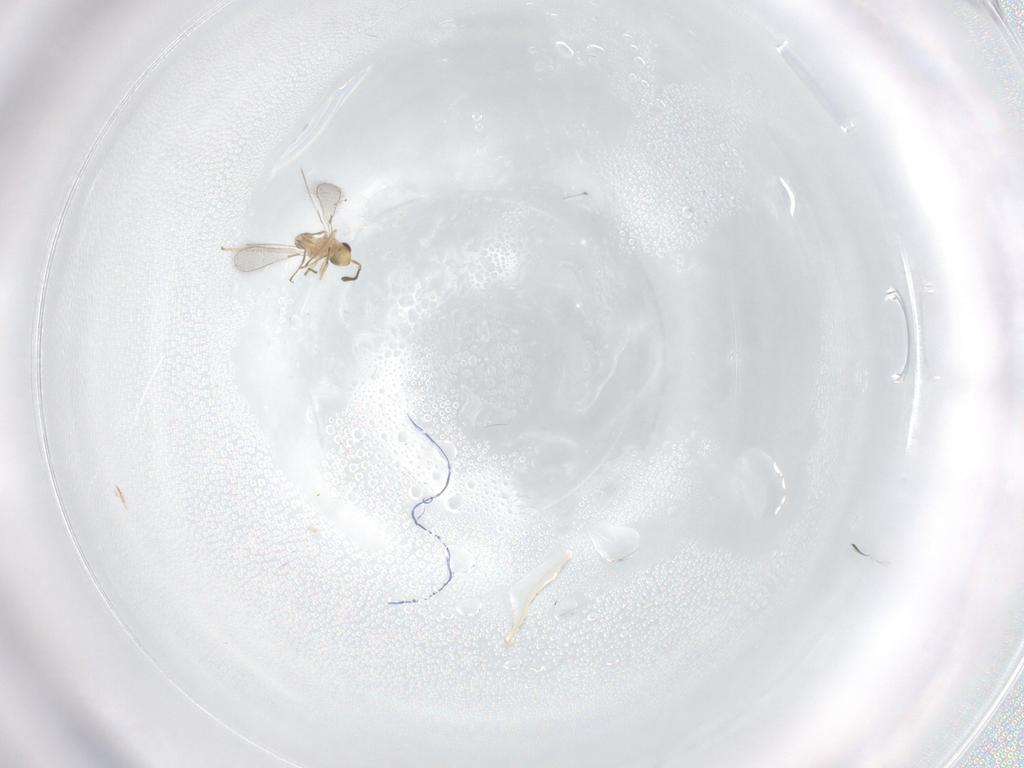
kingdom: Animalia
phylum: Arthropoda
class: Insecta
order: Hymenoptera
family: Mymaridae
